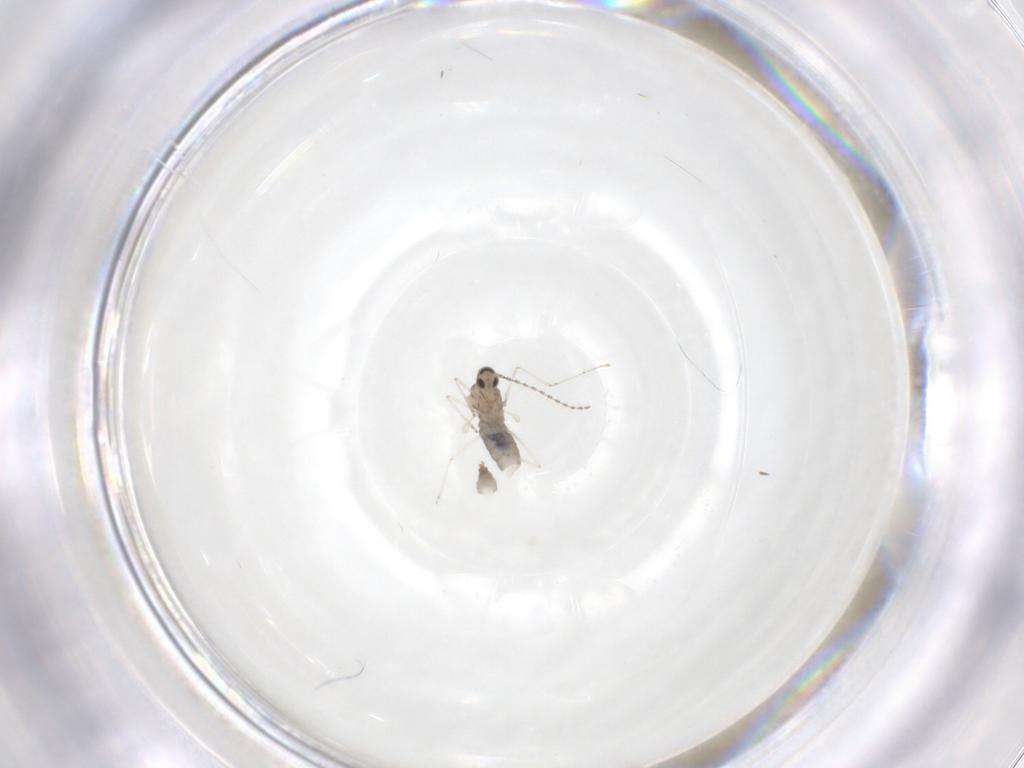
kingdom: Animalia
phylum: Arthropoda
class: Insecta
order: Diptera
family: Cecidomyiidae
